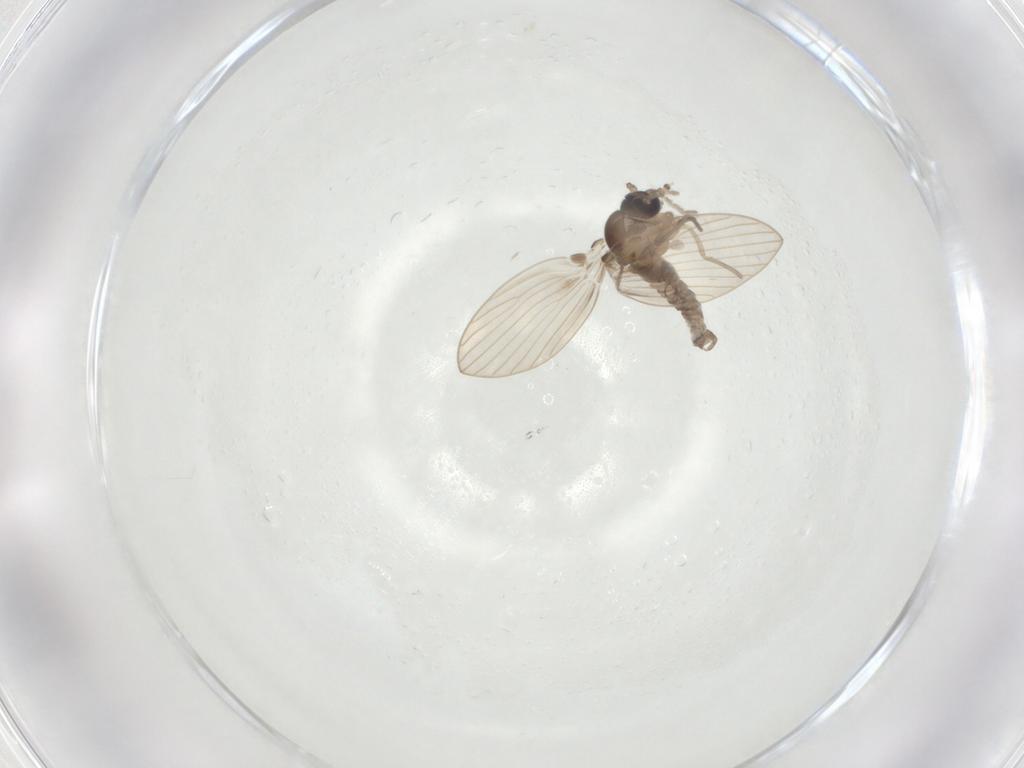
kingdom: Animalia
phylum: Arthropoda
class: Insecta
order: Diptera
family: Psychodidae
